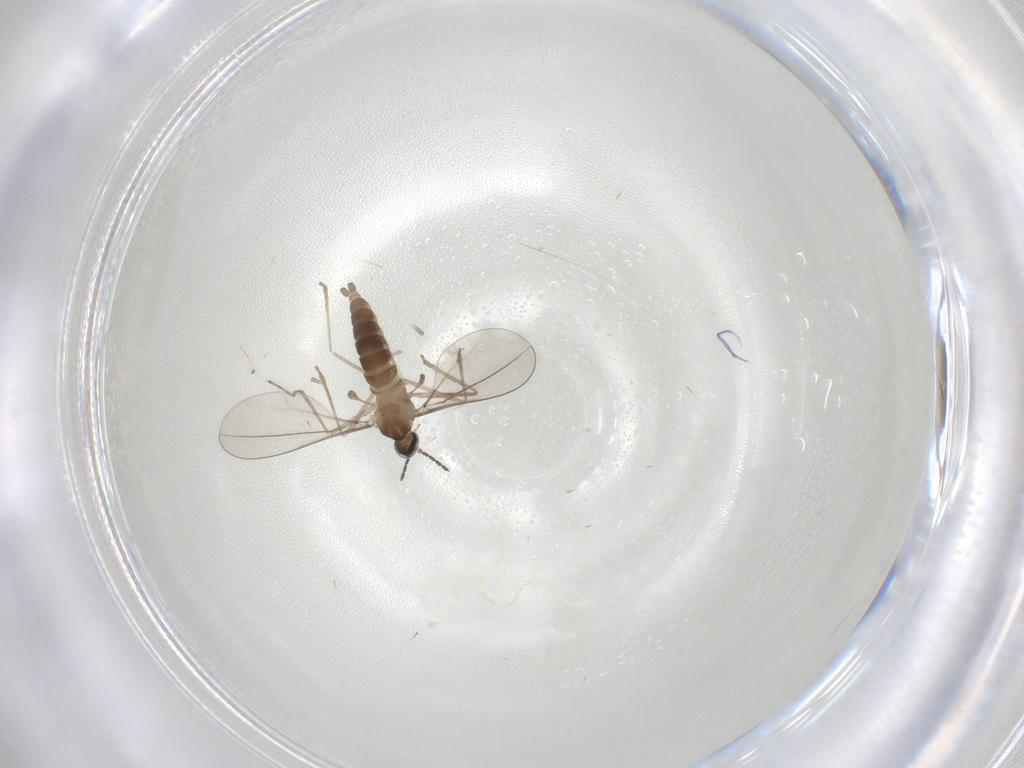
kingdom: Animalia
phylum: Arthropoda
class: Insecta
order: Diptera
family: Cecidomyiidae
